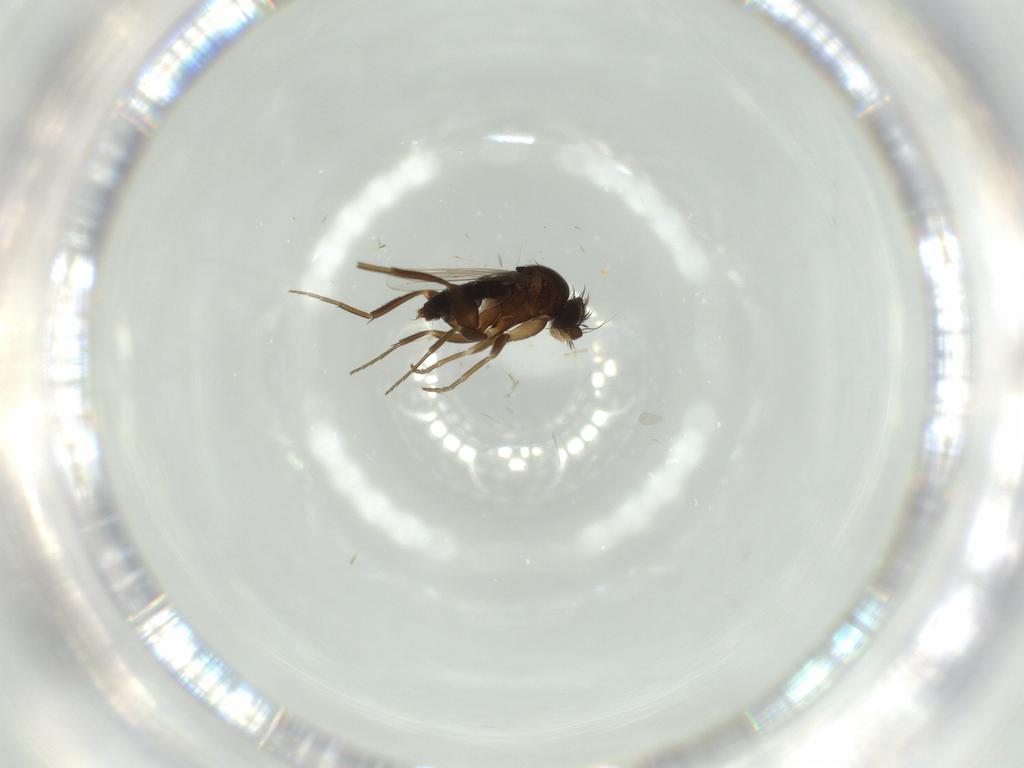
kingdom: Animalia
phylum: Arthropoda
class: Insecta
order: Diptera
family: Phoridae
